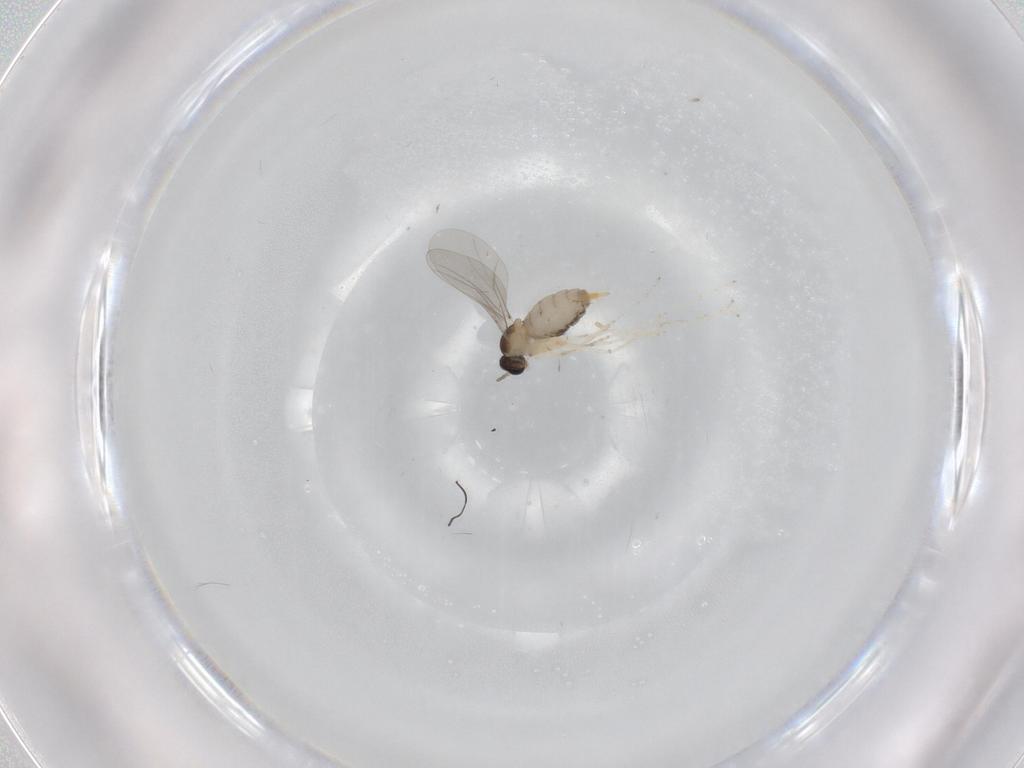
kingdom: Animalia
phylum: Arthropoda
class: Insecta
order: Diptera
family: Cecidomyiidae
